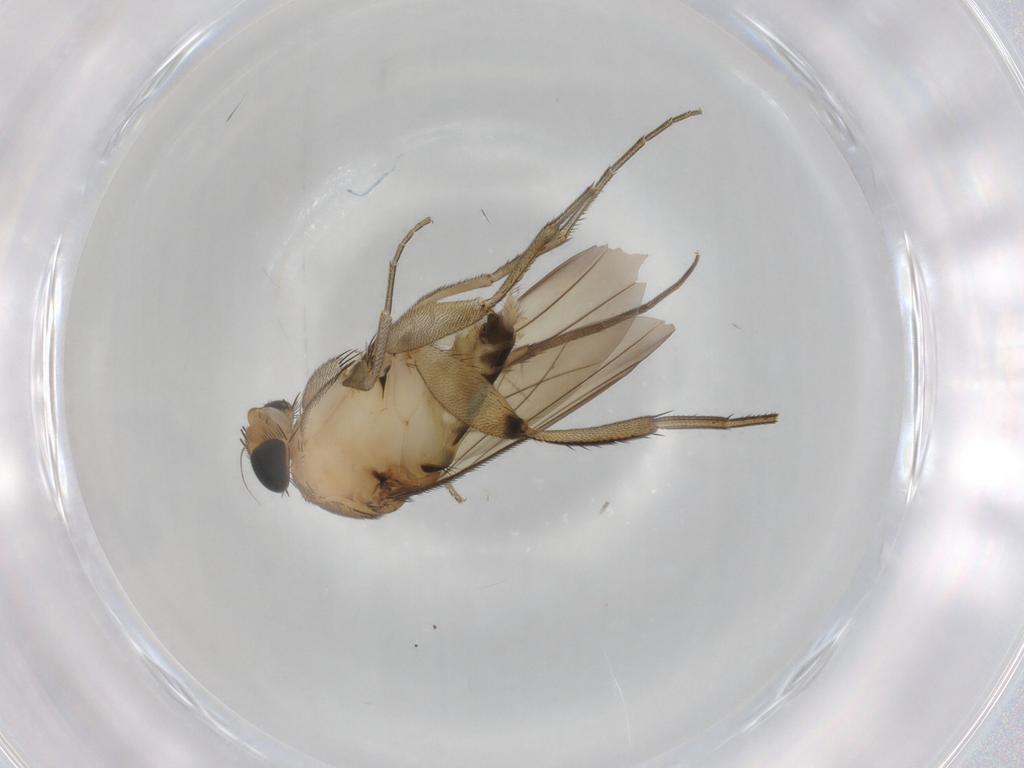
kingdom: Animalia
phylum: Arthropoda
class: Insecta
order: Diptera
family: Phoridae
